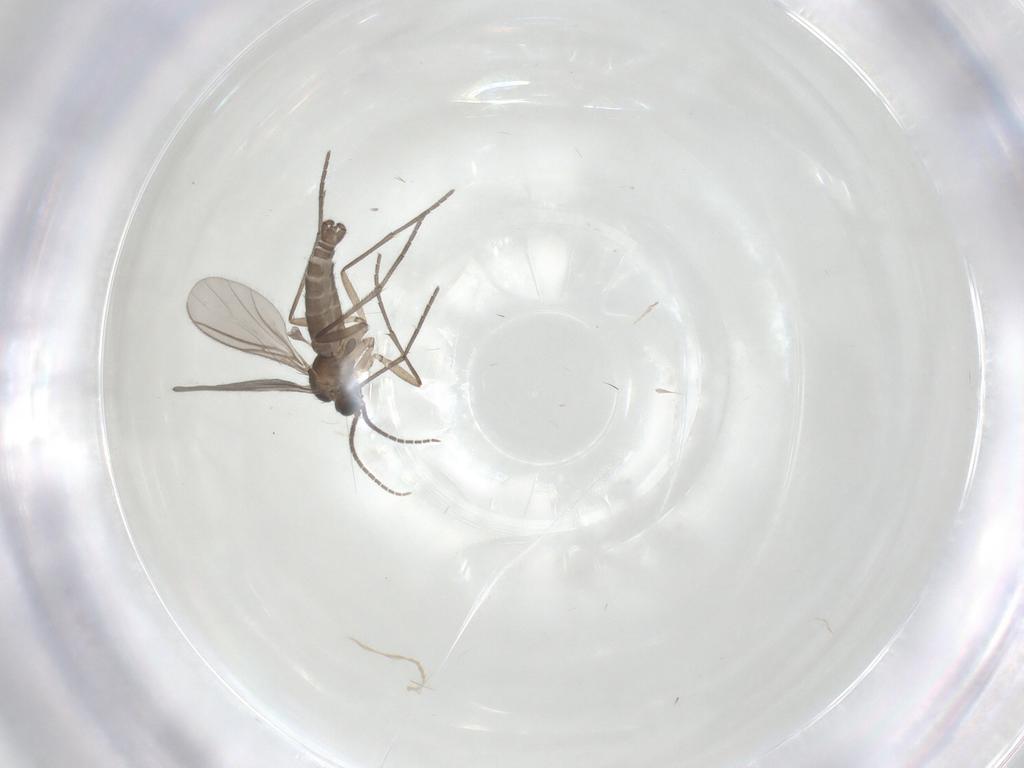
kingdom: Animalia
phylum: Arthropoda
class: Insecta
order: Diptera
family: Sciaridae
